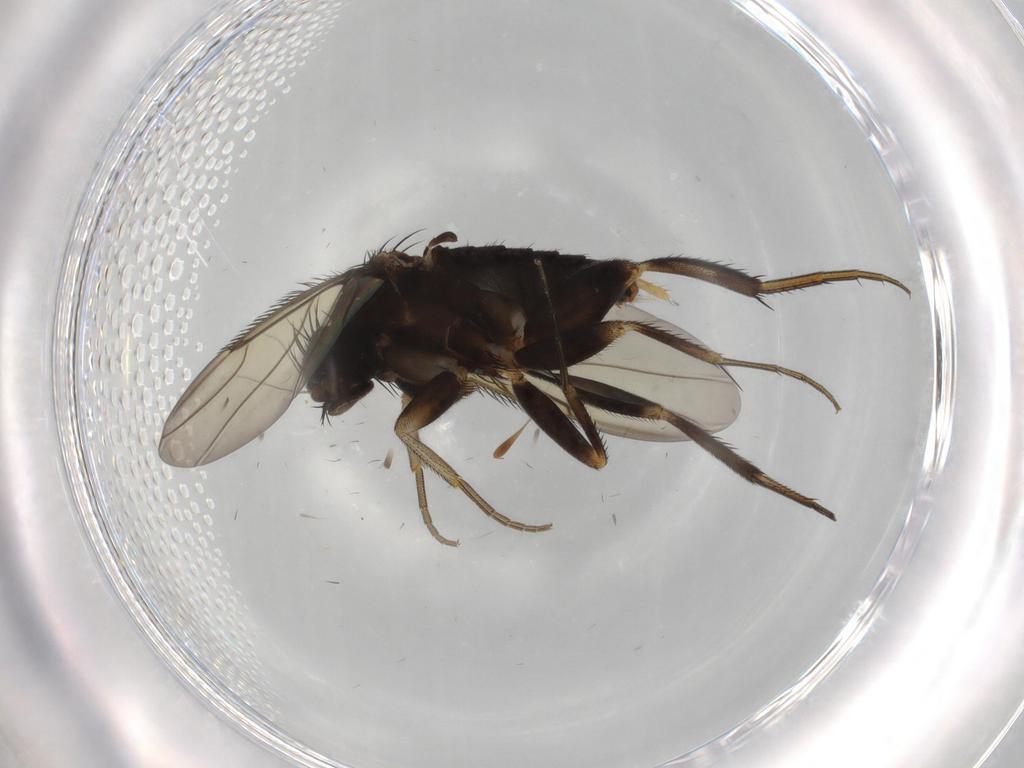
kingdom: Animalia
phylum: Arthropoda
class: Insecta
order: Diptera
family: Phoridae
